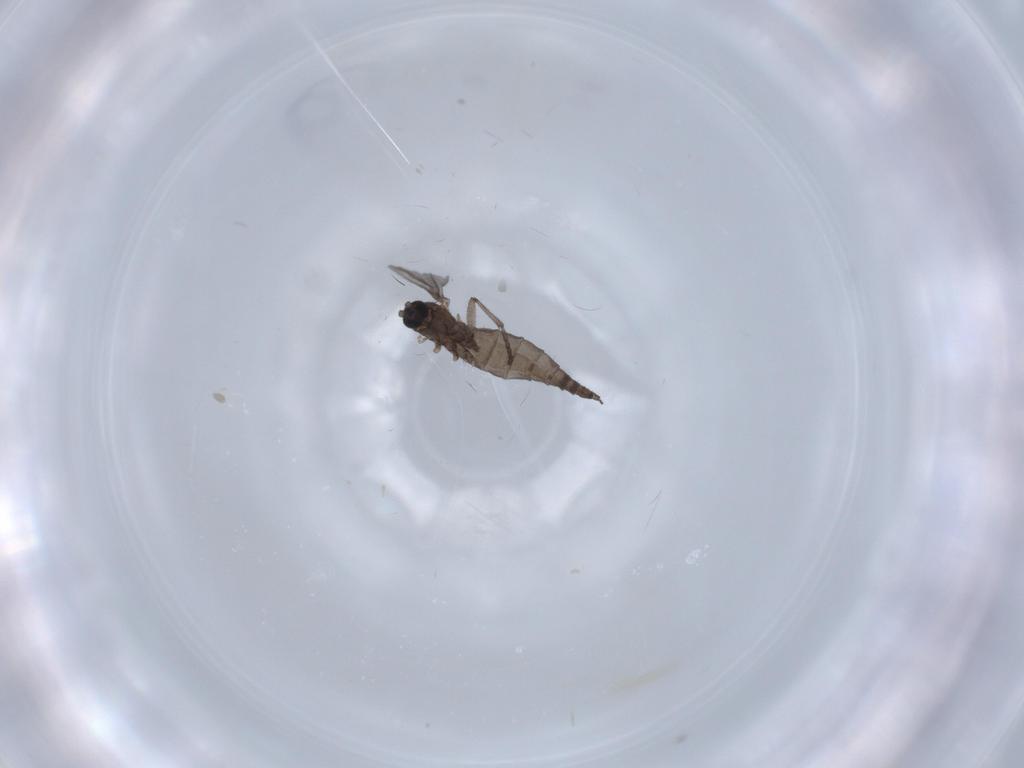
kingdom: Animalia
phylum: Arthropoda
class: Insecta
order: Diptera
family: Sciaridae
